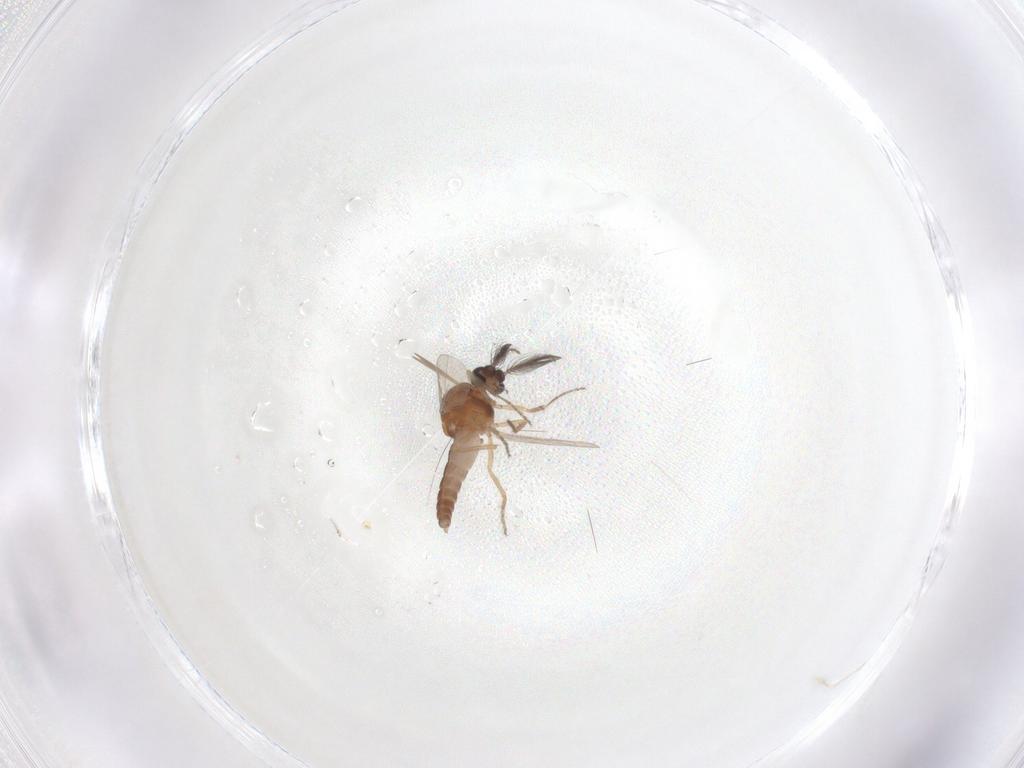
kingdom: Animalia
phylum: Arthropoda
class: Insecta
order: Diptera
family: Ceratopogonidae
